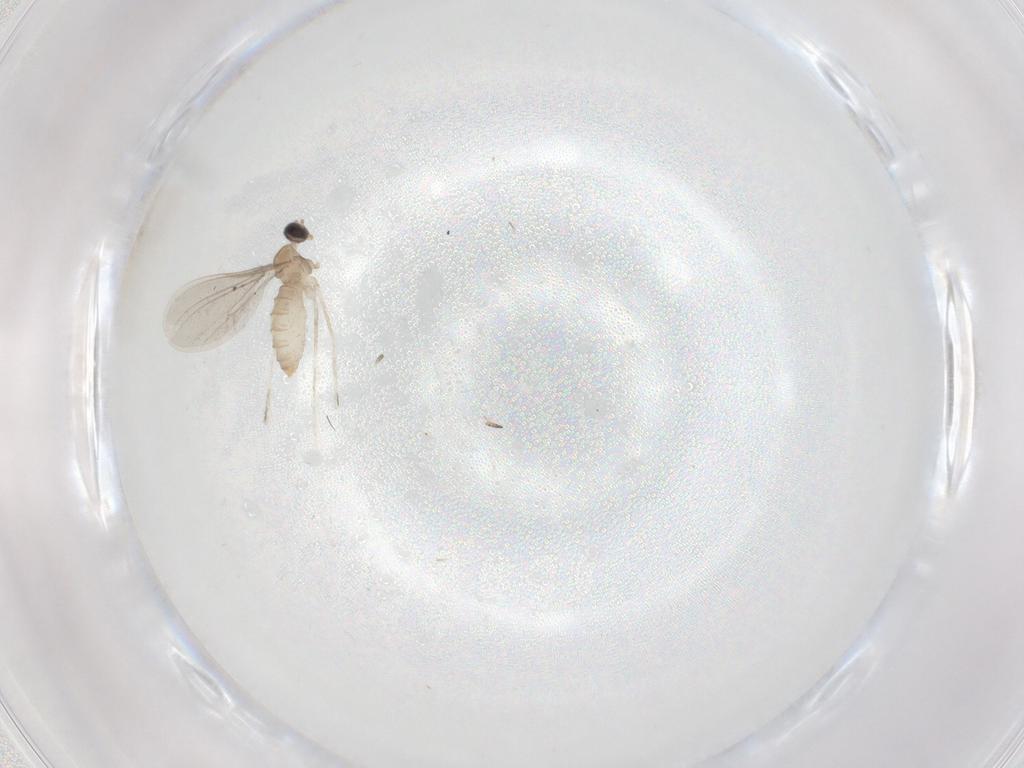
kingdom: Animalia
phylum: Arthropoda
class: Insecta
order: Diptera
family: Cecidomyiidae
